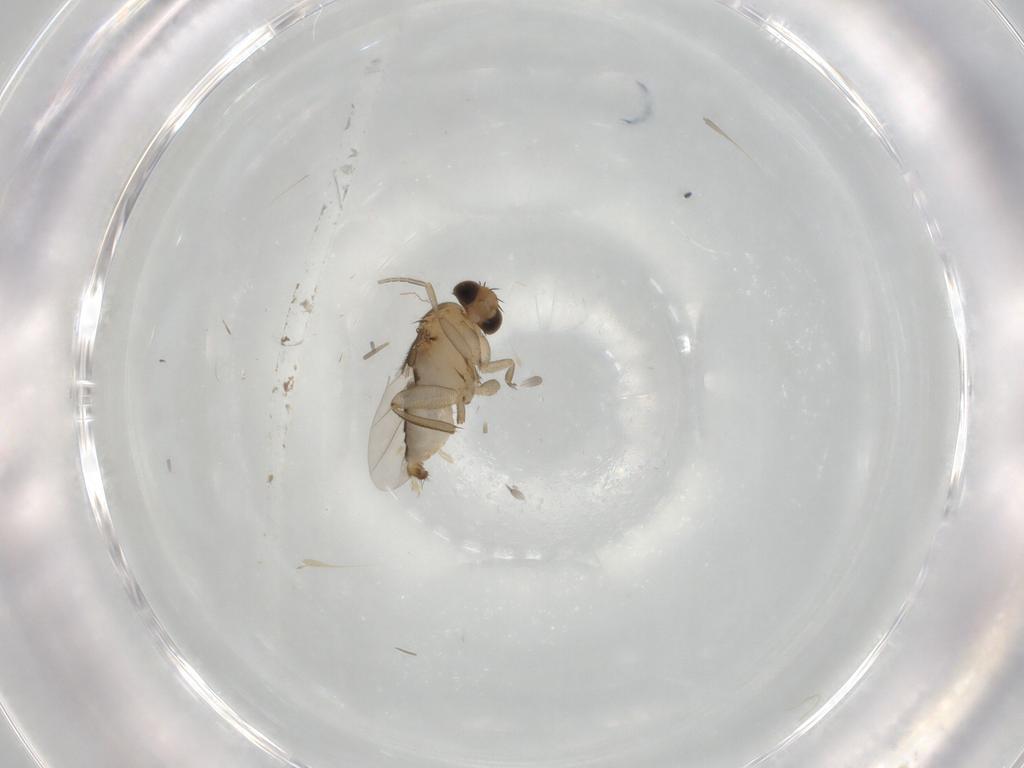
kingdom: Animalia
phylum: Arthropoda
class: Insecta
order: Diptera
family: Phoridae
